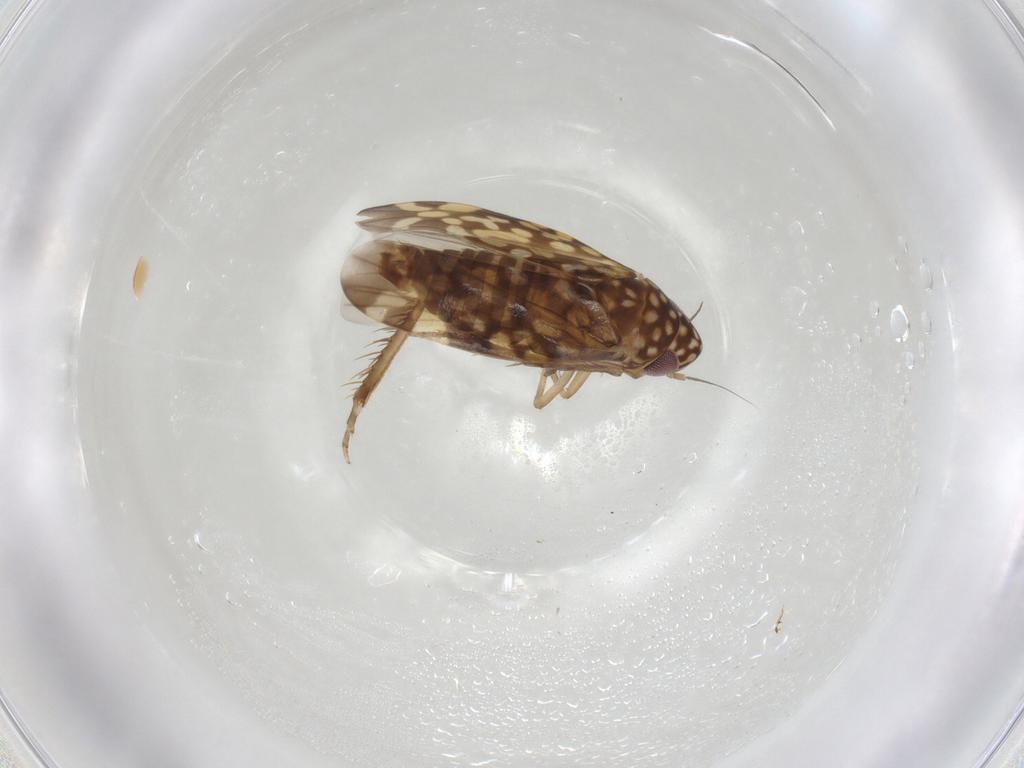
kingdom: Animalia
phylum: Arthropoda
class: Insecta
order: Hemiptera
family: Cicadellidae
